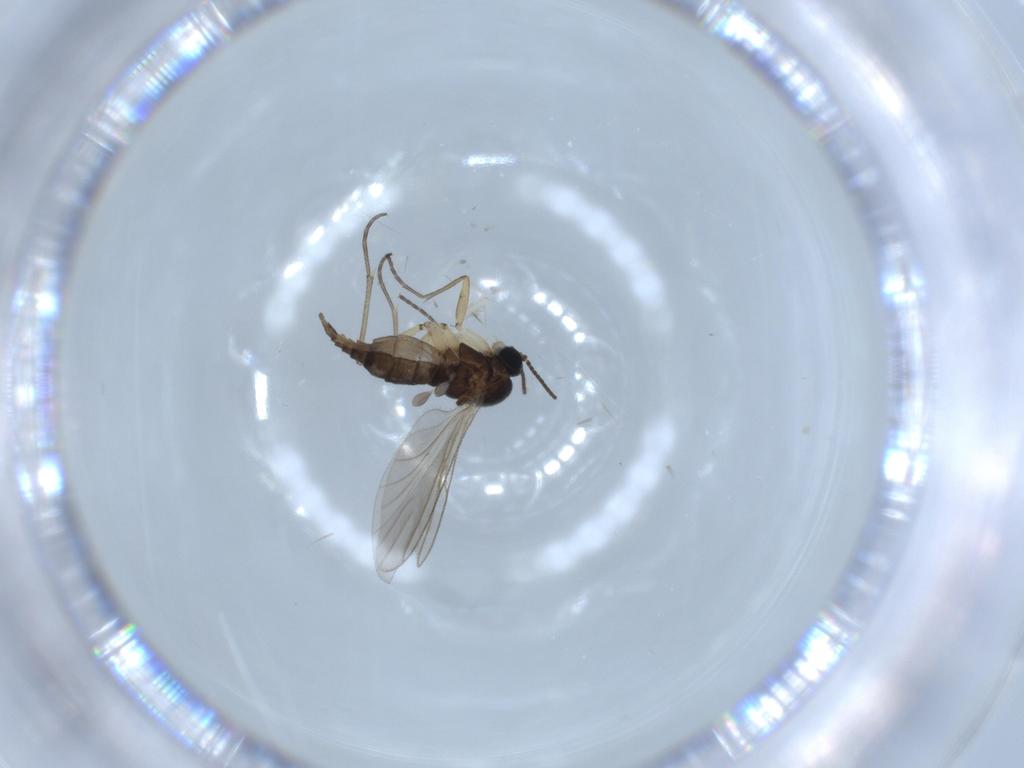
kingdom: Animalia
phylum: Arthropoda
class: Insecta
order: Diptera
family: Sciaridae
